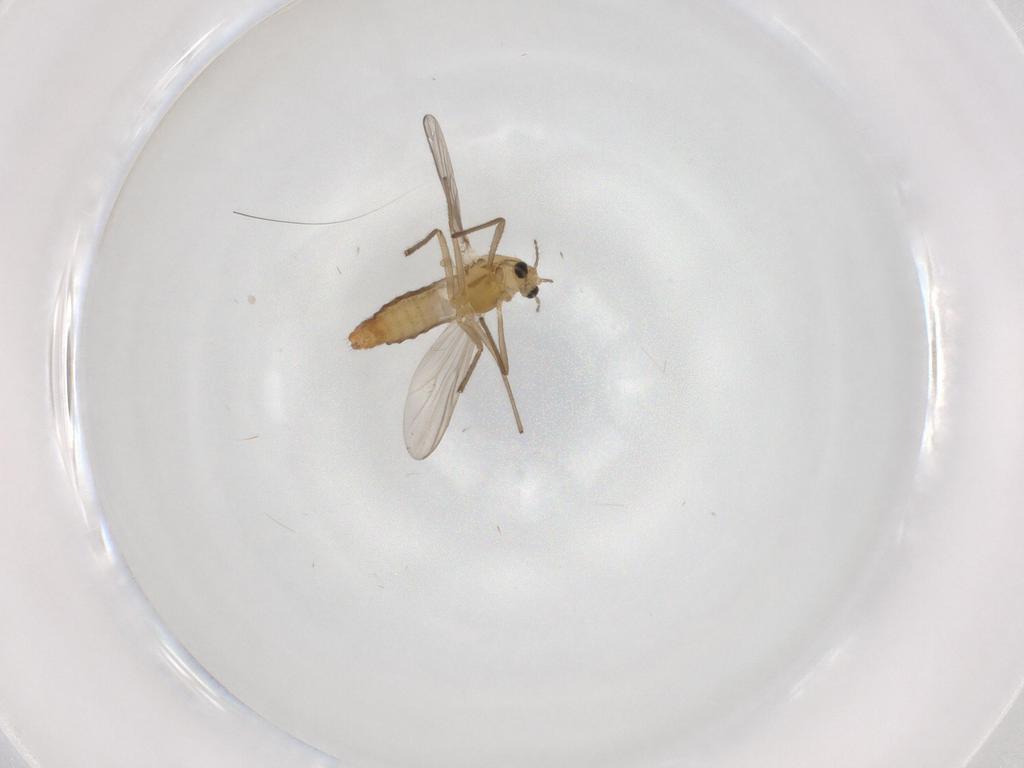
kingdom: Animalia
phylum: Arthropoda
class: Insecta
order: Diptera
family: Chironomidae
